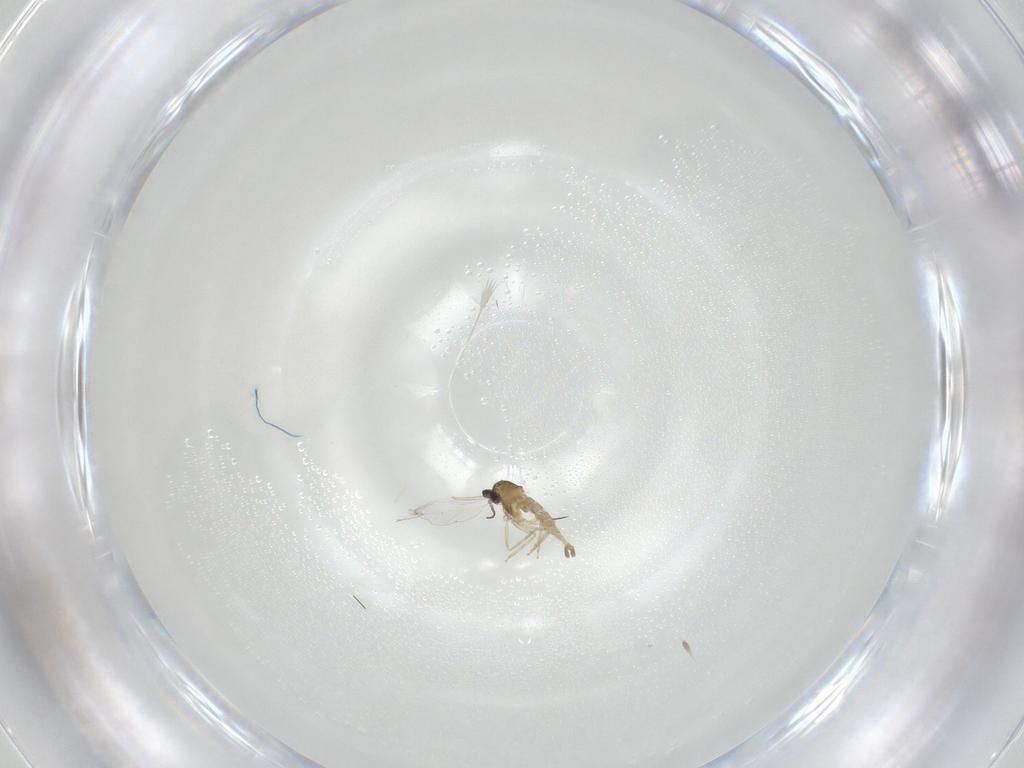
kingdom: Animalia
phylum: Arthropoda
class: Insecta
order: Diptera
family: Cecidomyiidae
